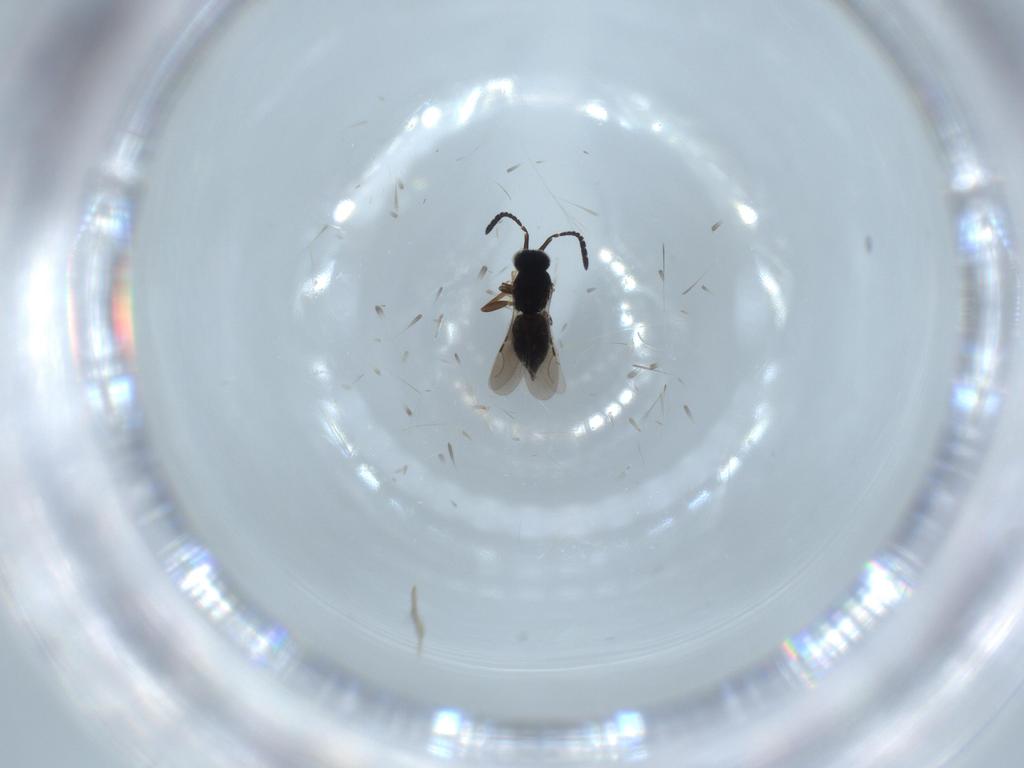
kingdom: Animalia
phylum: Arthropoda
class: Insecta
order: Hymenoptera
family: Ceraphronidae
